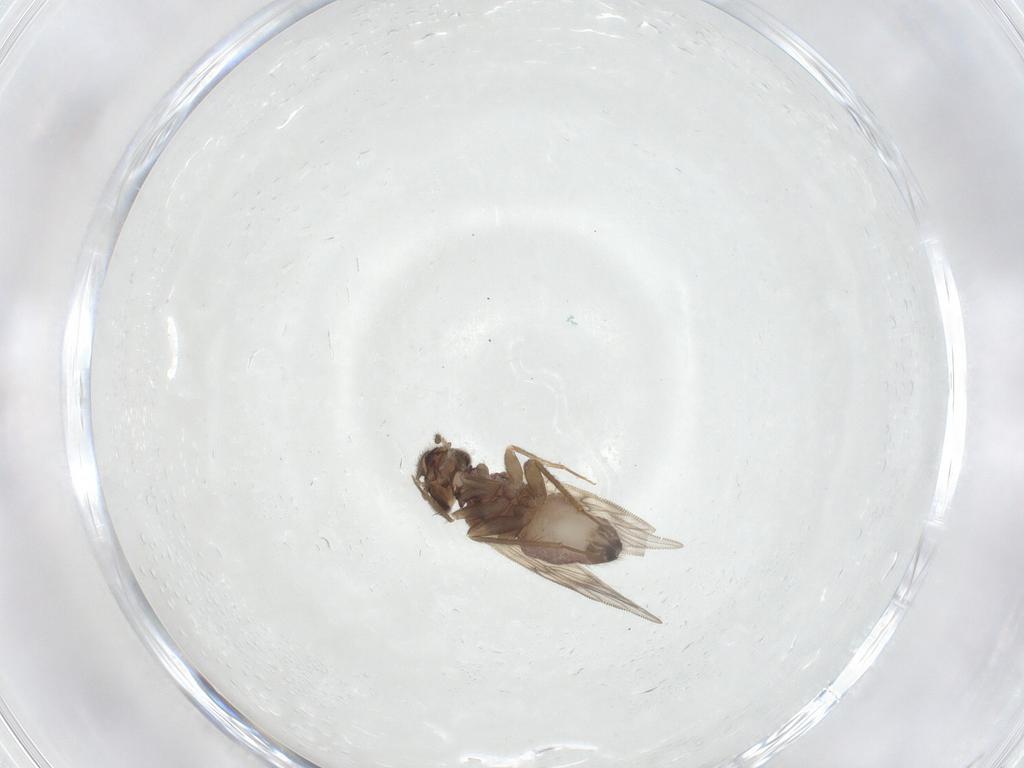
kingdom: Animalia
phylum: Arthropoda
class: Insecta
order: Psocodea
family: Lepidopsocidae
